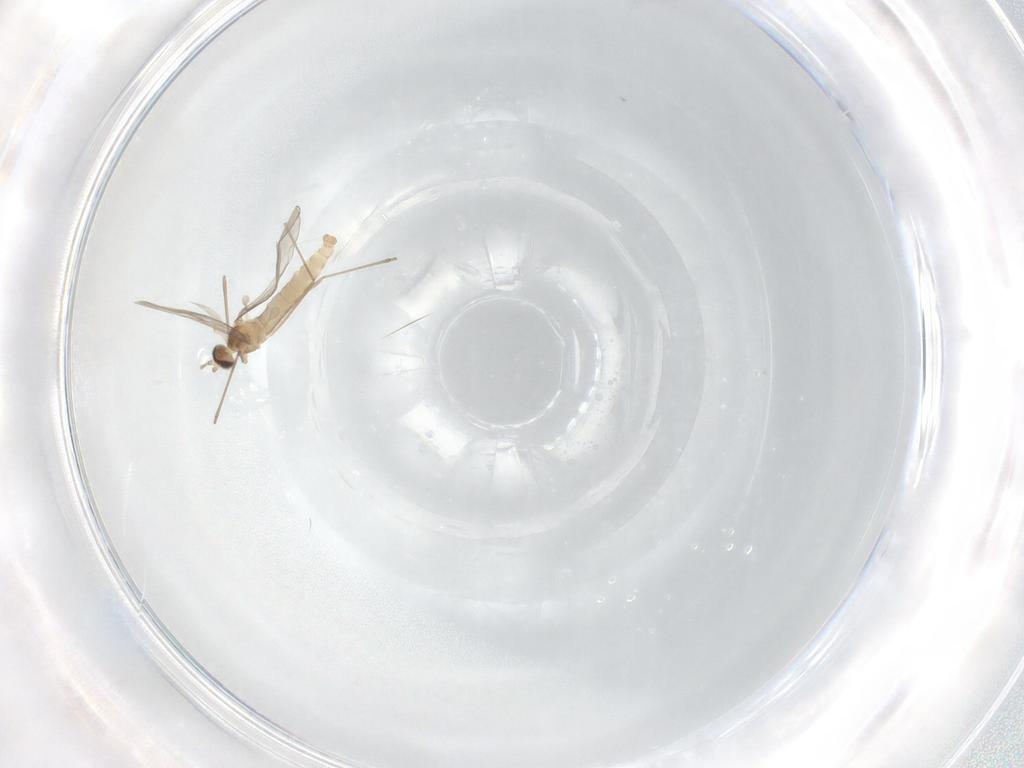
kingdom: Animalia
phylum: Arthropoda
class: Insecta
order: Diptera
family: Cecidomyiidae
